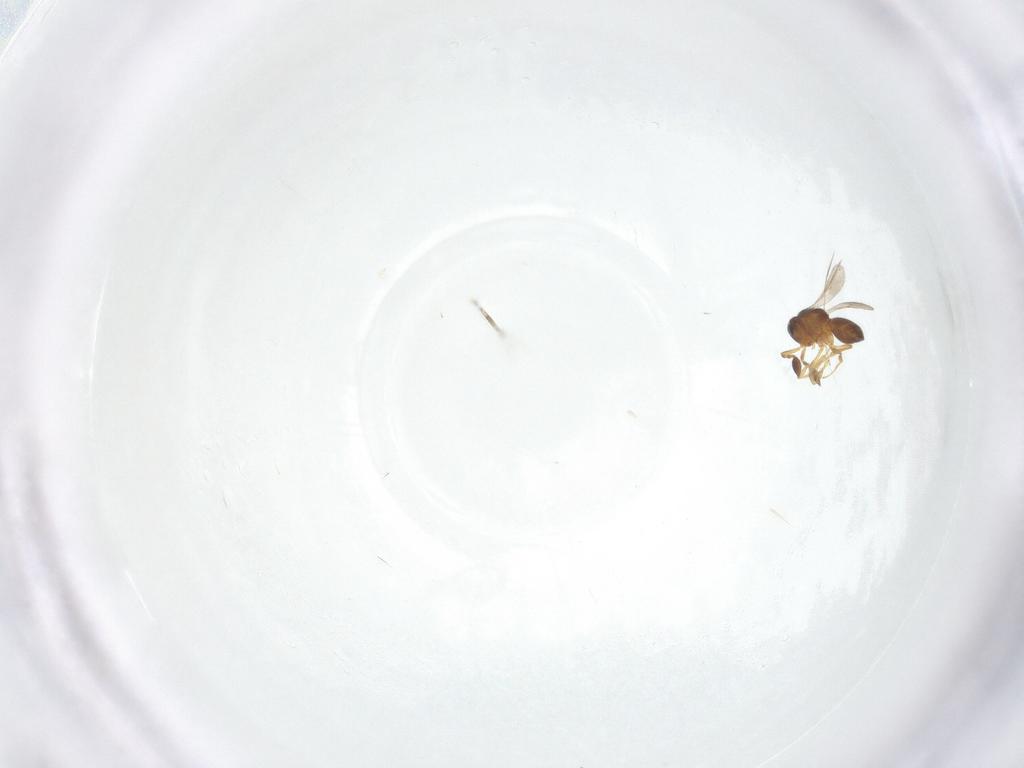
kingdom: Animalia
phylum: Arthropoda
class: Insecta
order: Hymenoptera
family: Scelionidae
